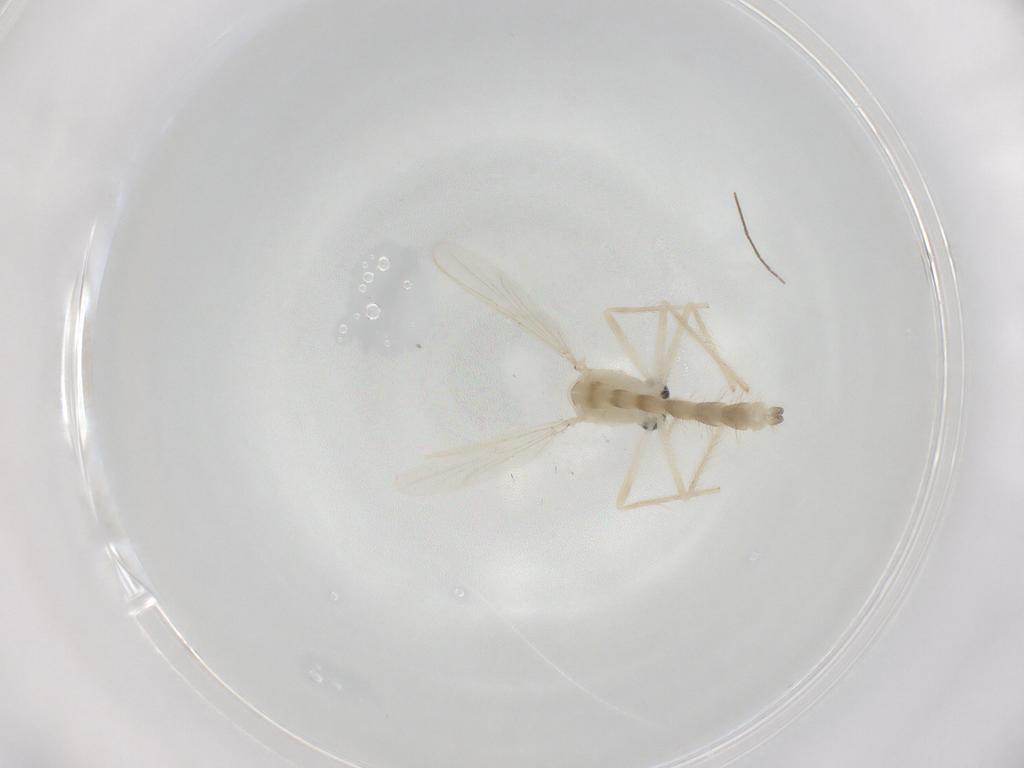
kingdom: Animalia
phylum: Arthropoda
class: Insecta
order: Diptera
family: Chironomidae
